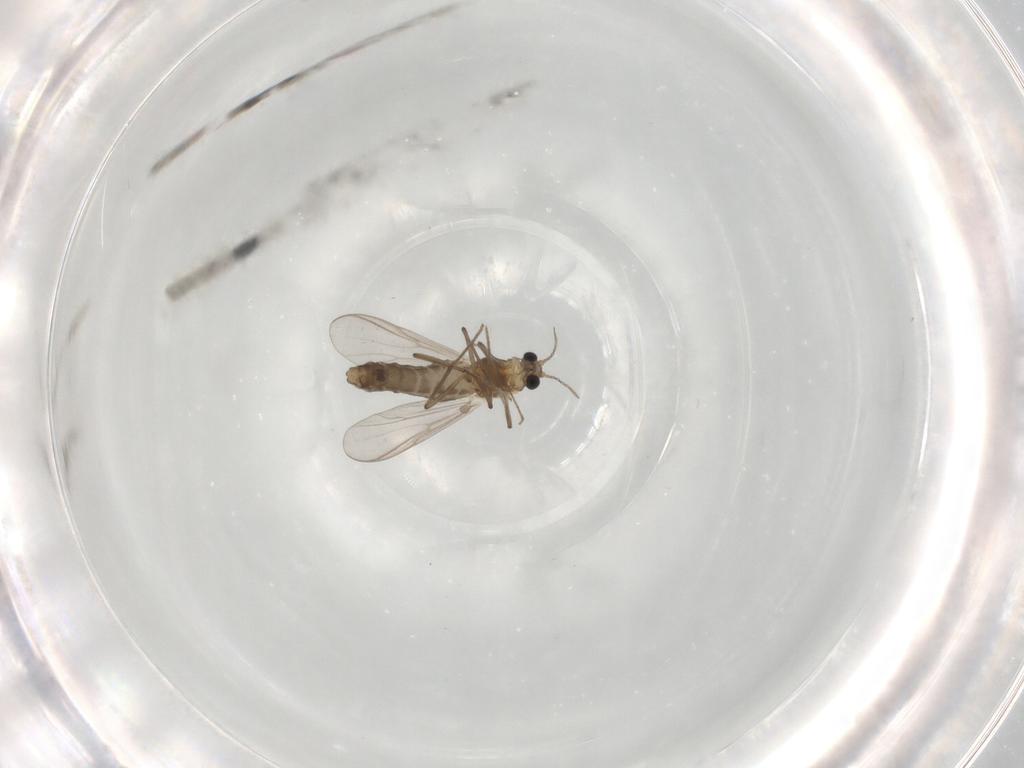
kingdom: Animalia
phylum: Arthropoda
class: Insecta
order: Diptera
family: Chironomidae
